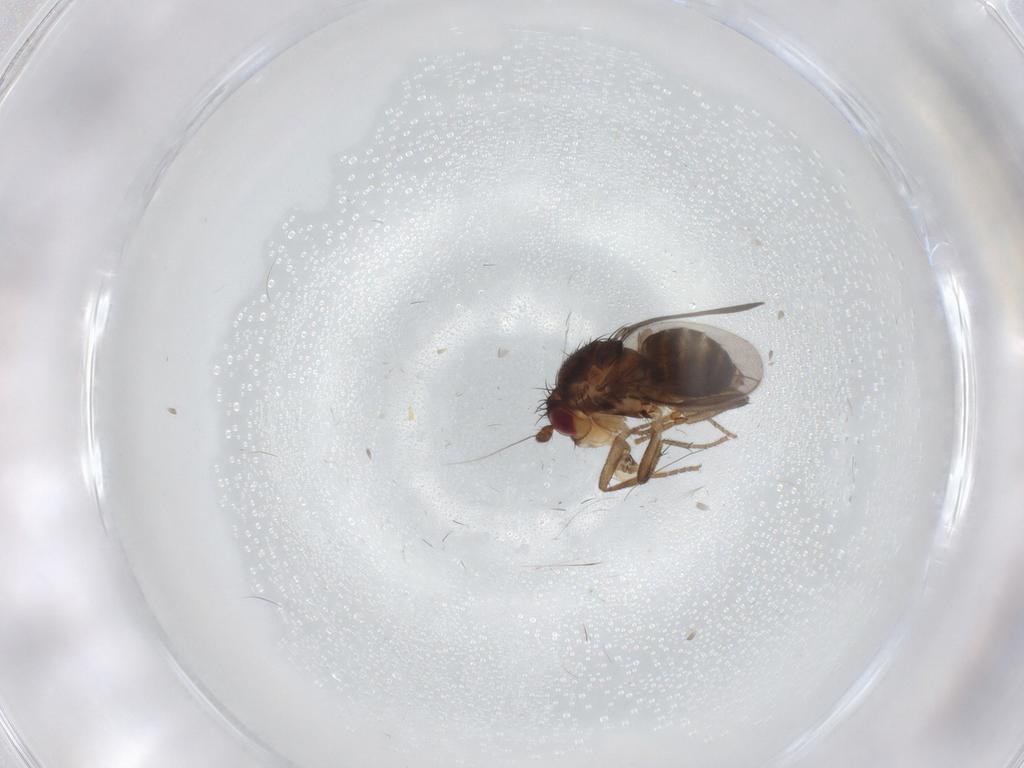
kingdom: Animalia
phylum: Arthropoda
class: Insecta
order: Diptera
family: Sphaeroceridae
